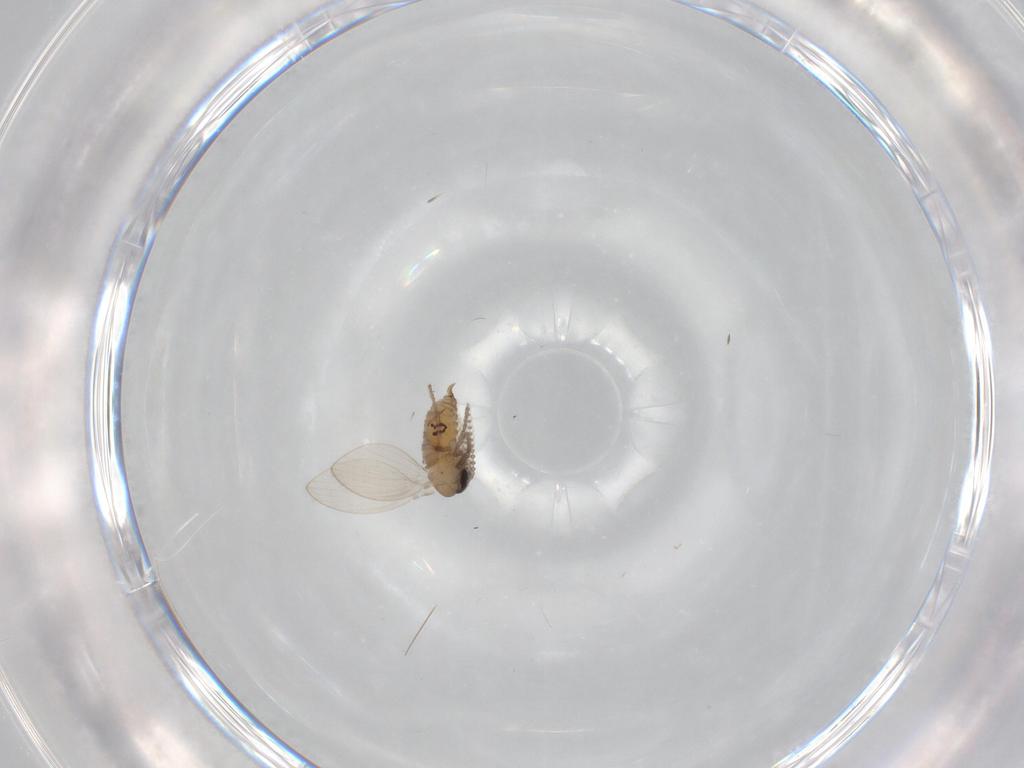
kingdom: Animalia
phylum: Arthropoda
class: Insecta
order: Diptera
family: Psychodidae
